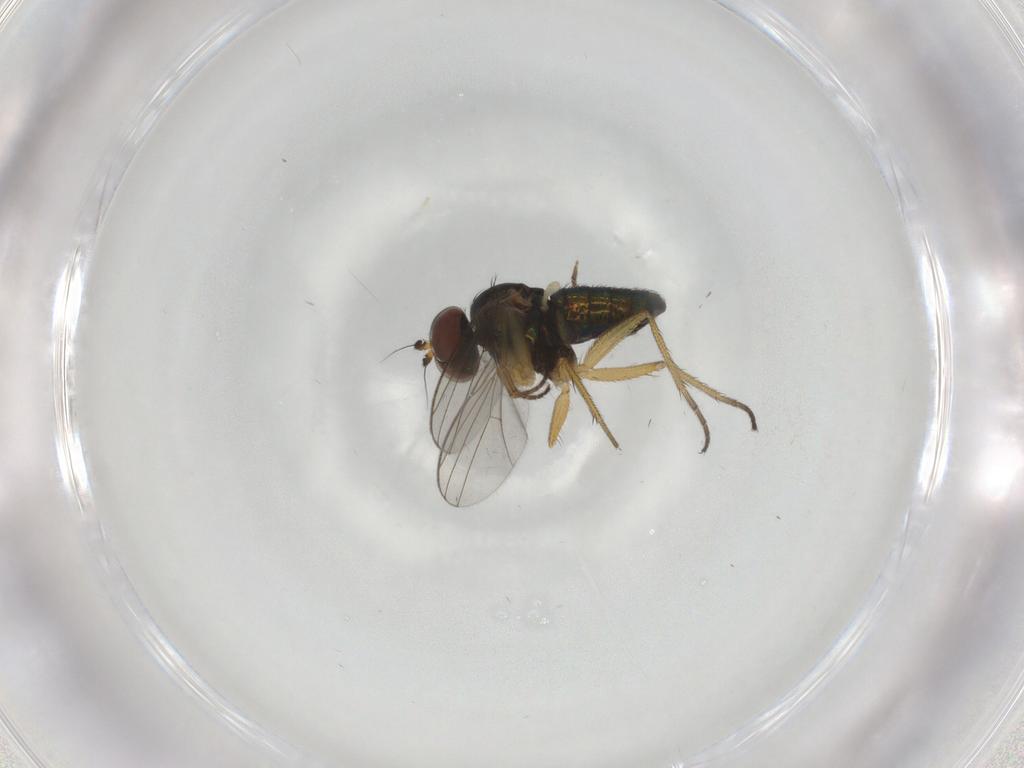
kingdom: Animalia
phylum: Arthropoda
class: Insecta
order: Diptera
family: Dolichopodidae
